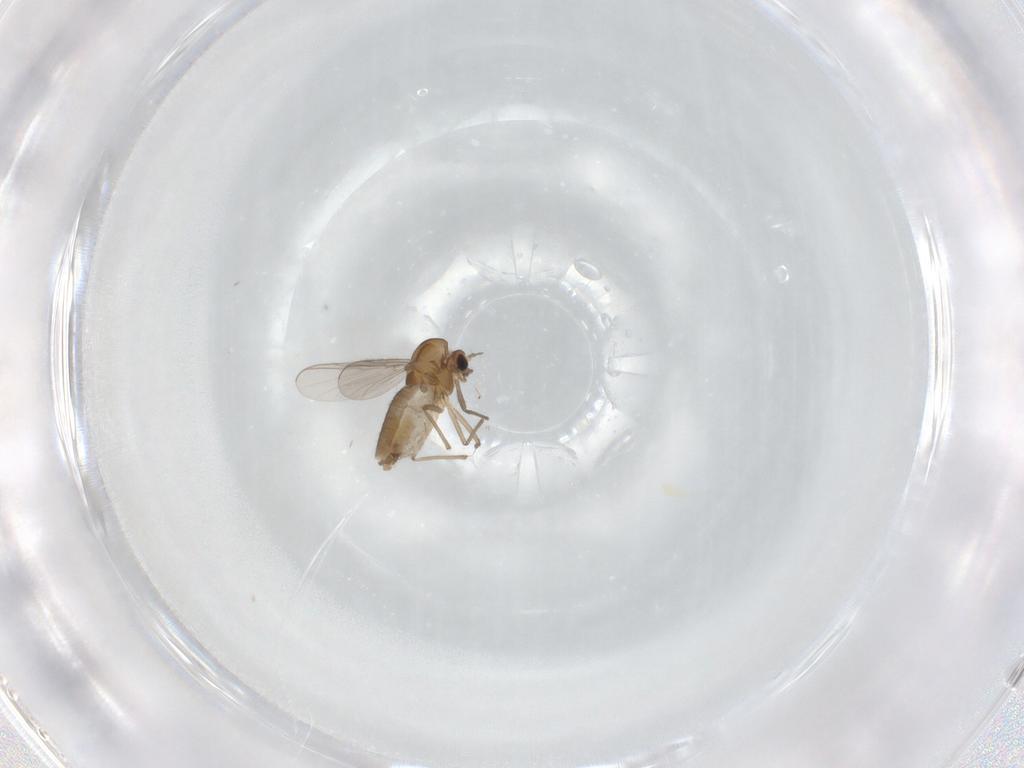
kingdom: Animalia
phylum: Arthropoda
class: Insecta
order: Diptera
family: Chironomidae
